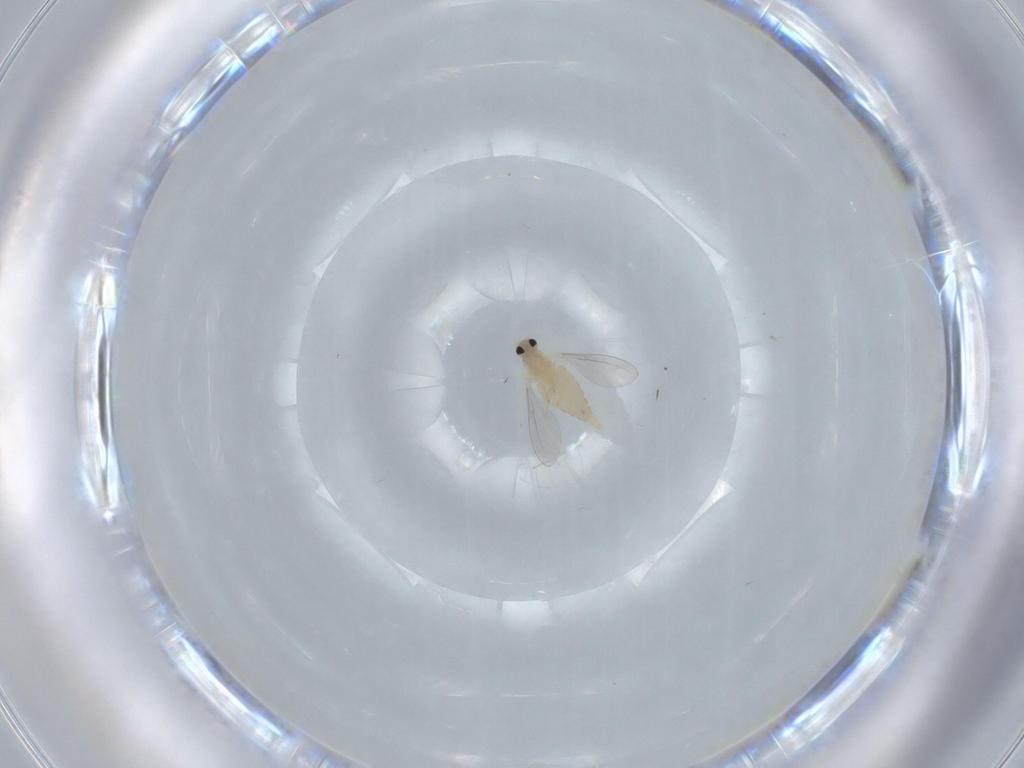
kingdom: Animalia
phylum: Arthropoda
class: Insecta
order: Diptera
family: Cecidomyiidae
